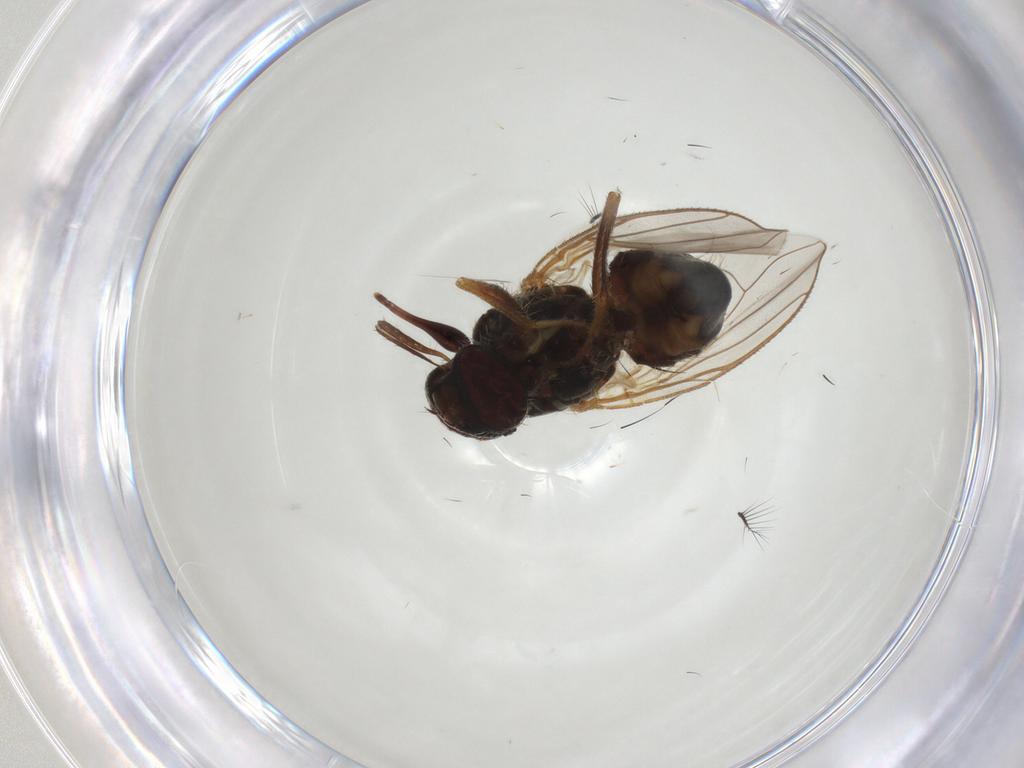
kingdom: Animalia
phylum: Arthropoda
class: Insecta
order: Diptera
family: Muscidae
